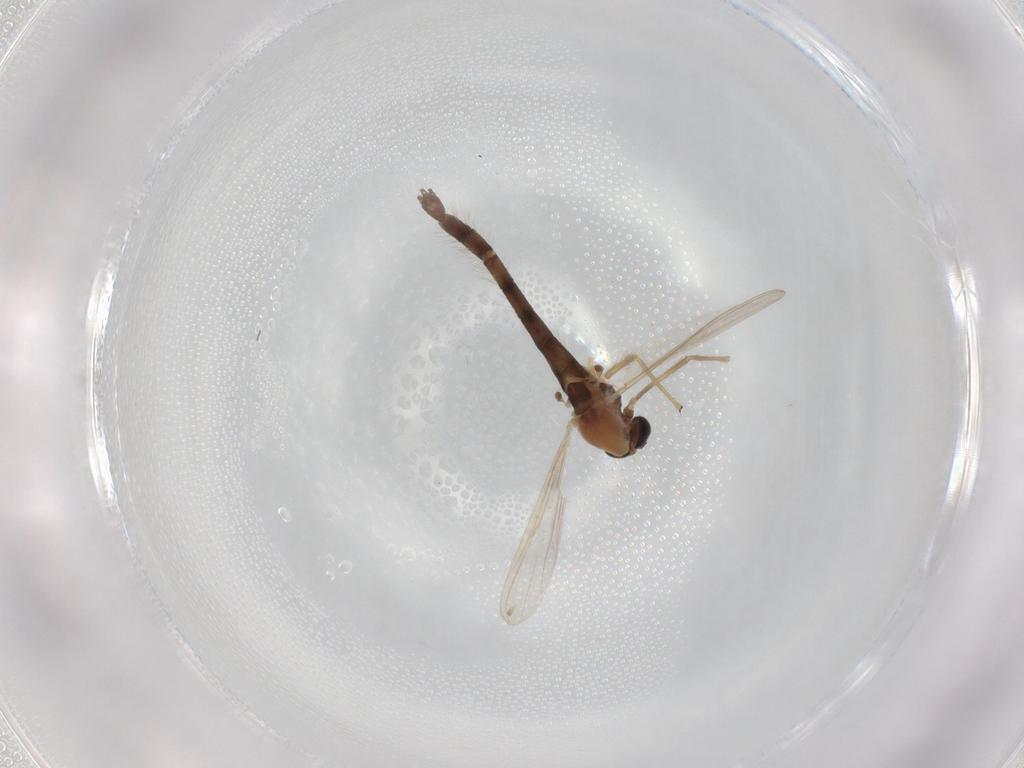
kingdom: Animalia
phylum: Arthropoda
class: Insecta
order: Diptera
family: Chironomidae
